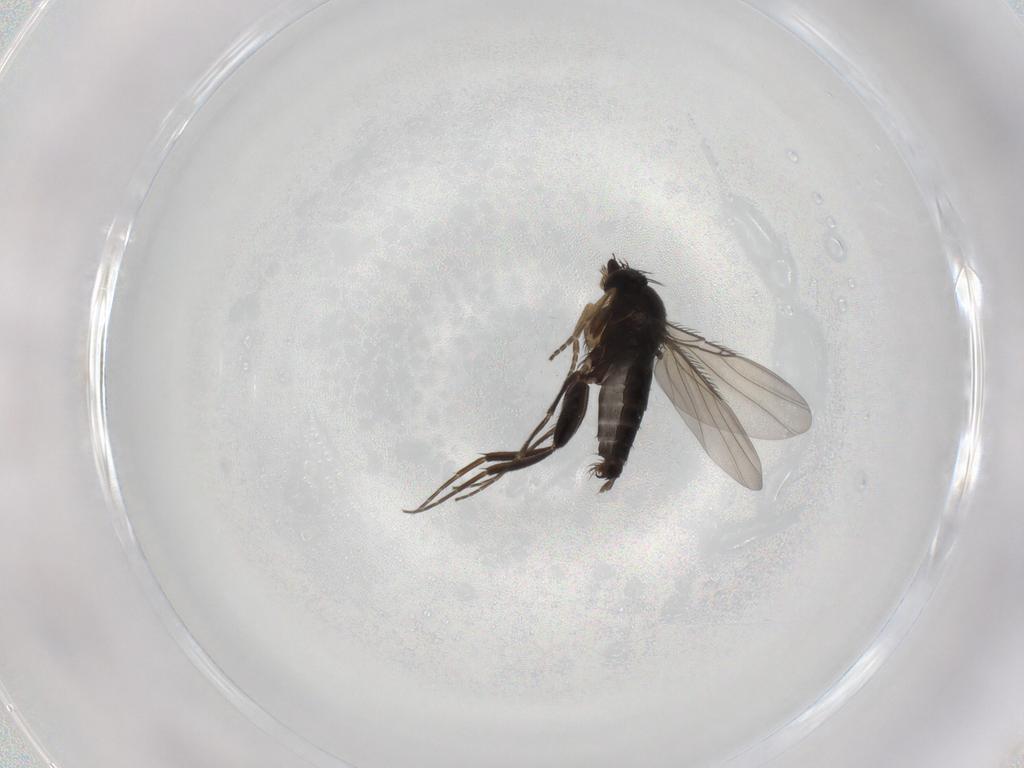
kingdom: Animalia
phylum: Arthropoda
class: Insecta
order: Diptera
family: Phoridae
